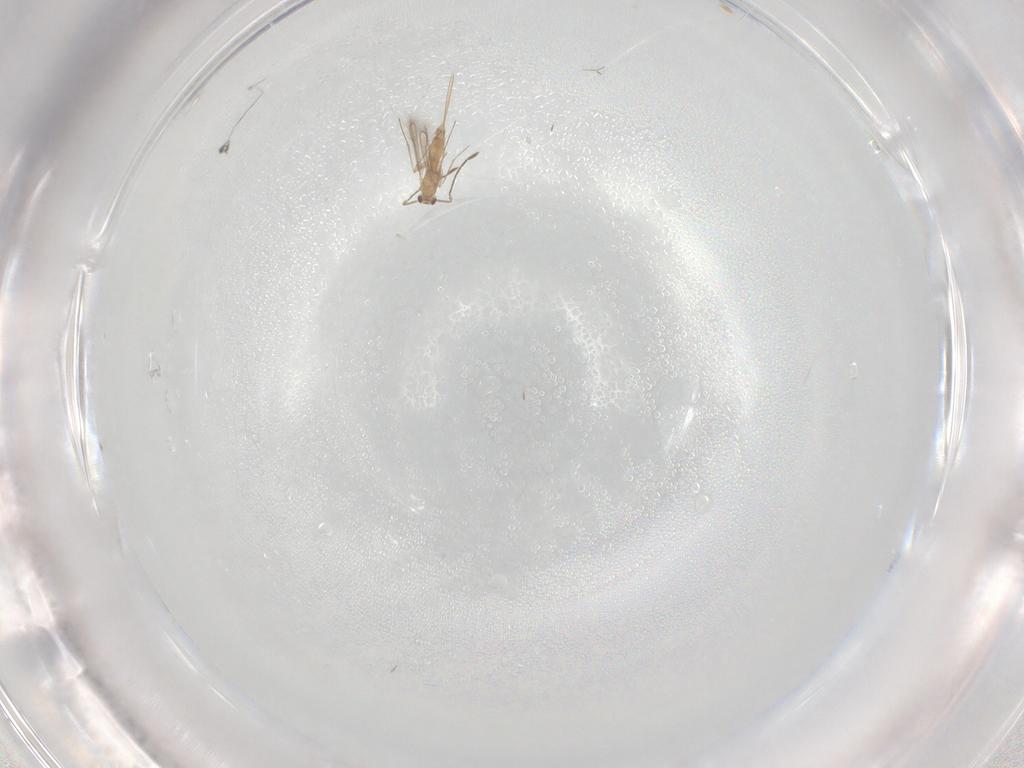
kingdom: Animalia
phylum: Arthropoda
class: Insecta
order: Hymenoptera
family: Mymaridae
